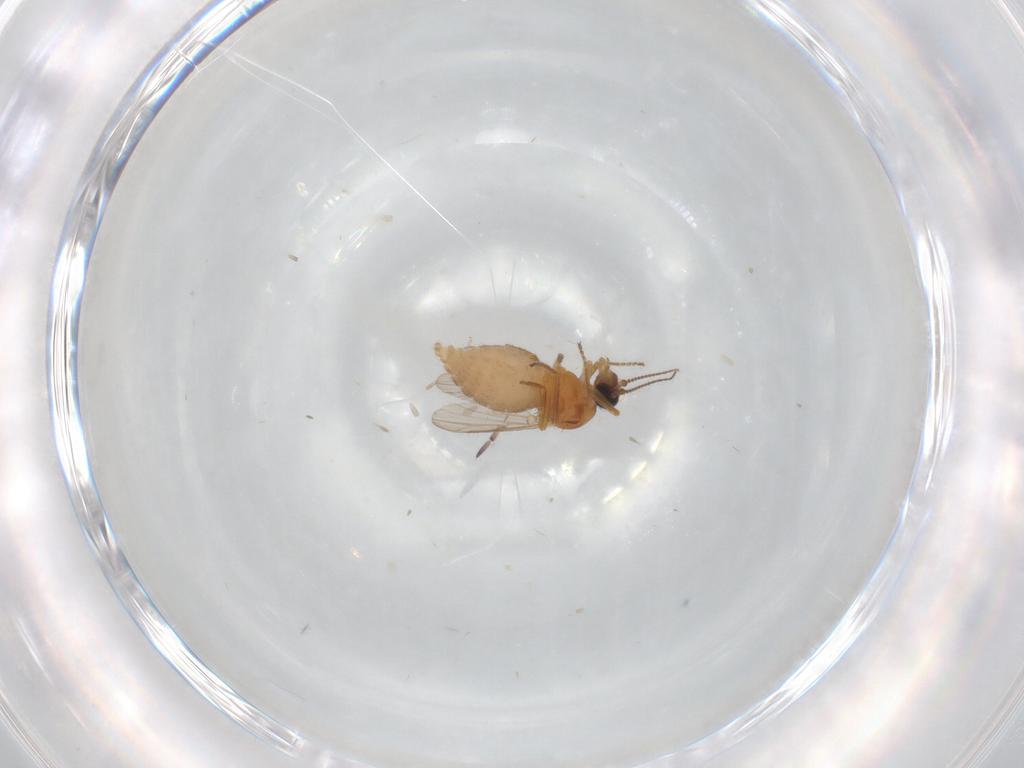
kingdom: Animalia
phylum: Arthropoda
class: Insecta
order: Diptera
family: Ceratopogonidae
